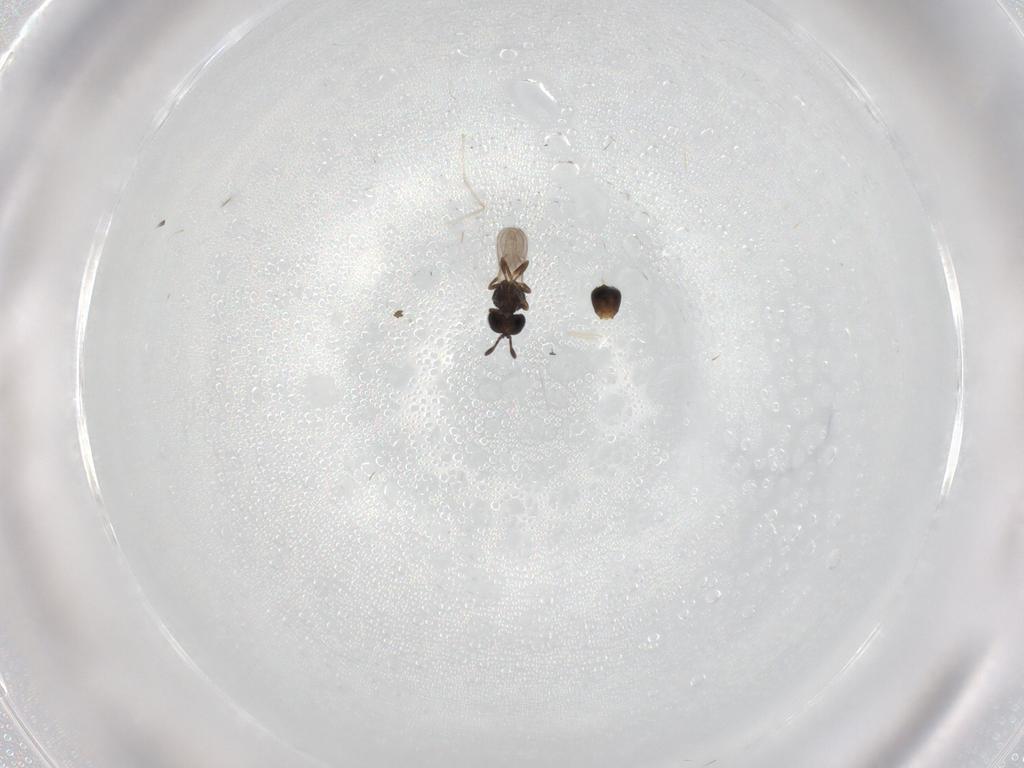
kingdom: Animalia
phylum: Arthropoda
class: Insecta
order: Hymenoptera
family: Scelionidae
